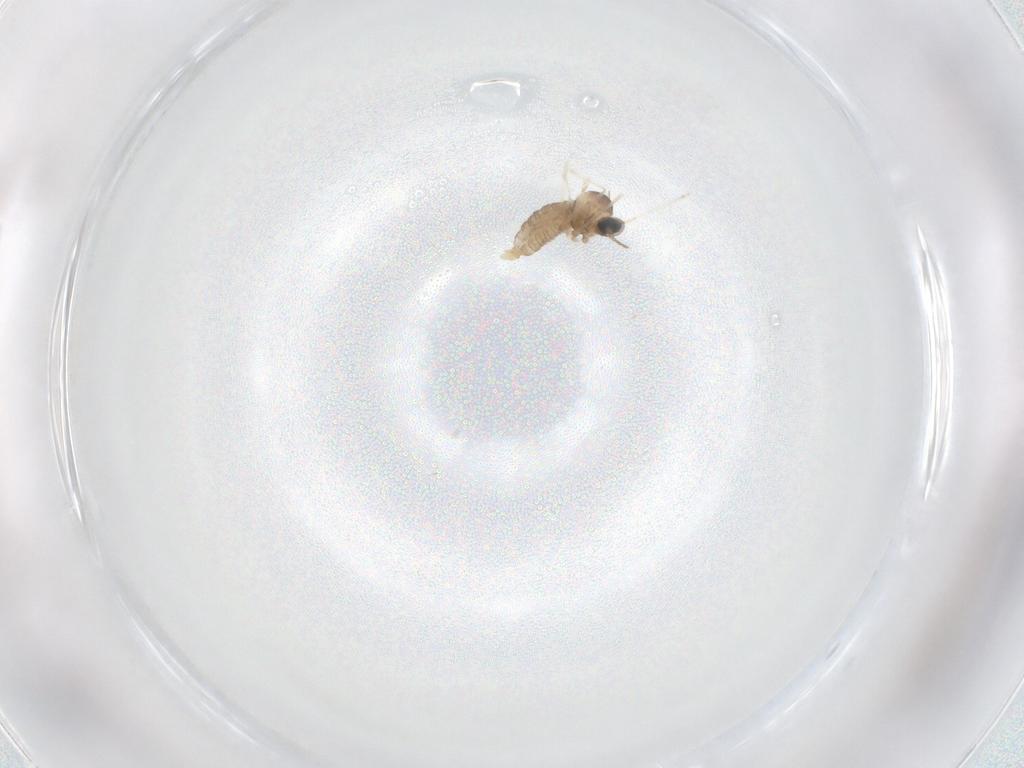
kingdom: Animalia
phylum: Arthropoda
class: Insecta
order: Diptera
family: Cecidomyiidae
